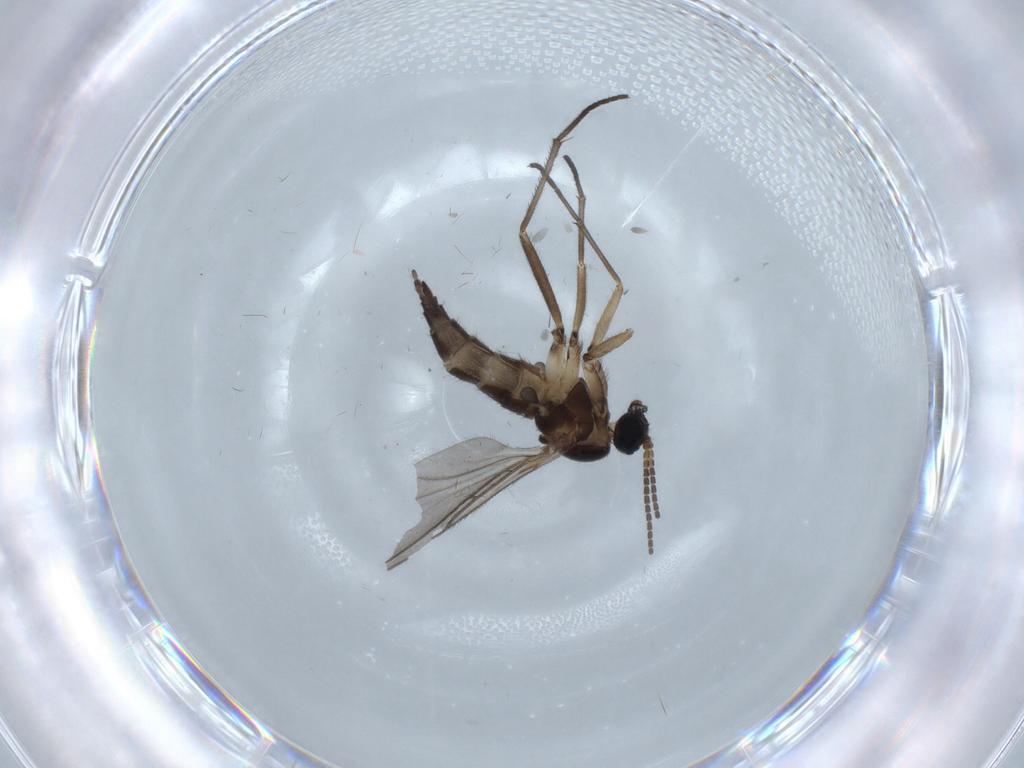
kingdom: Animalia
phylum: Arthropoda
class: Insecta
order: Diptera
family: Sciaridae
